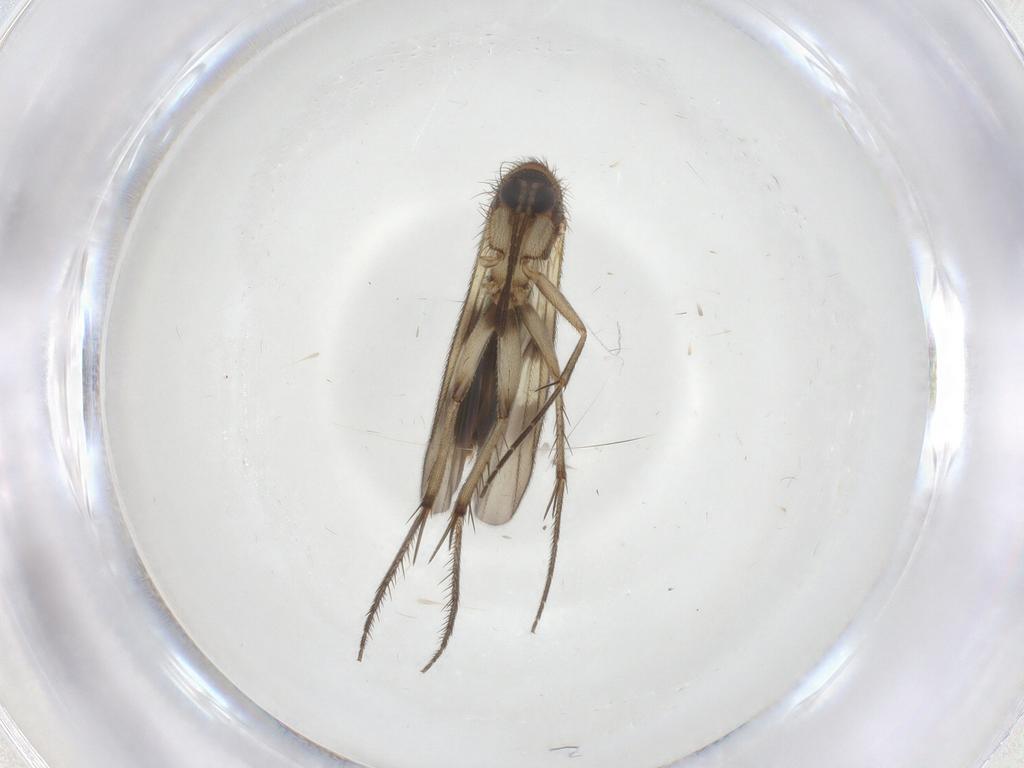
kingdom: Animalia
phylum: Arthropoda
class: Insecta
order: Diptera
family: Mycetophilidae
